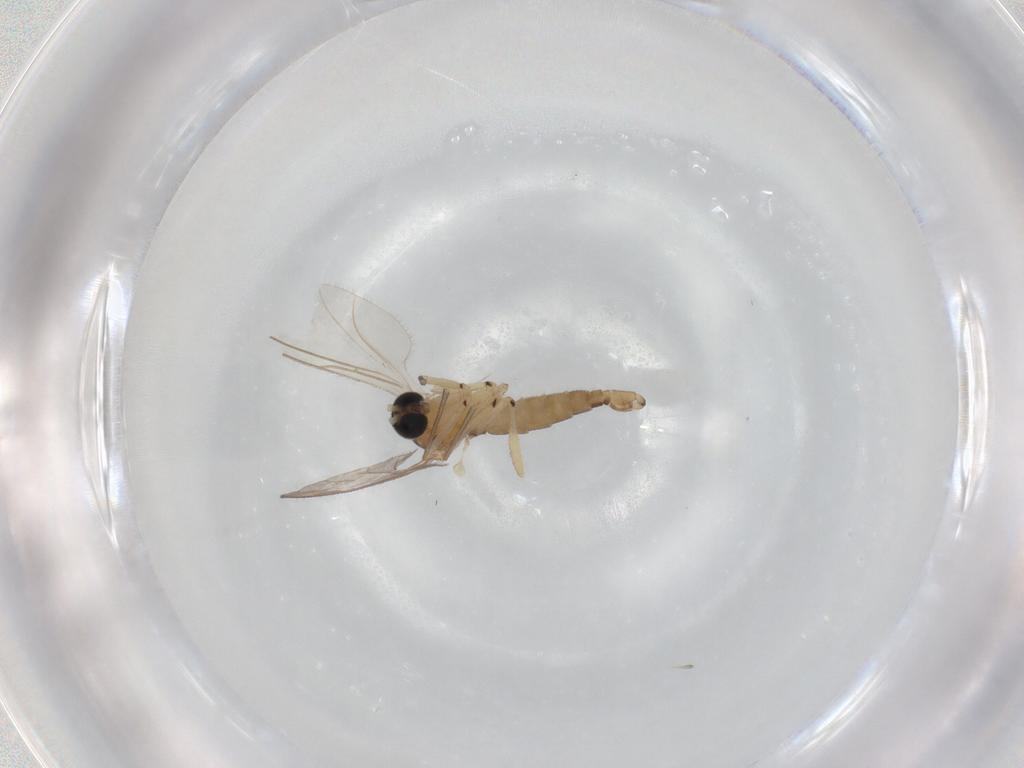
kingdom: Animalia
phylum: Arthropoda
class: Insecta
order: Diptera
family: Sciaridae
